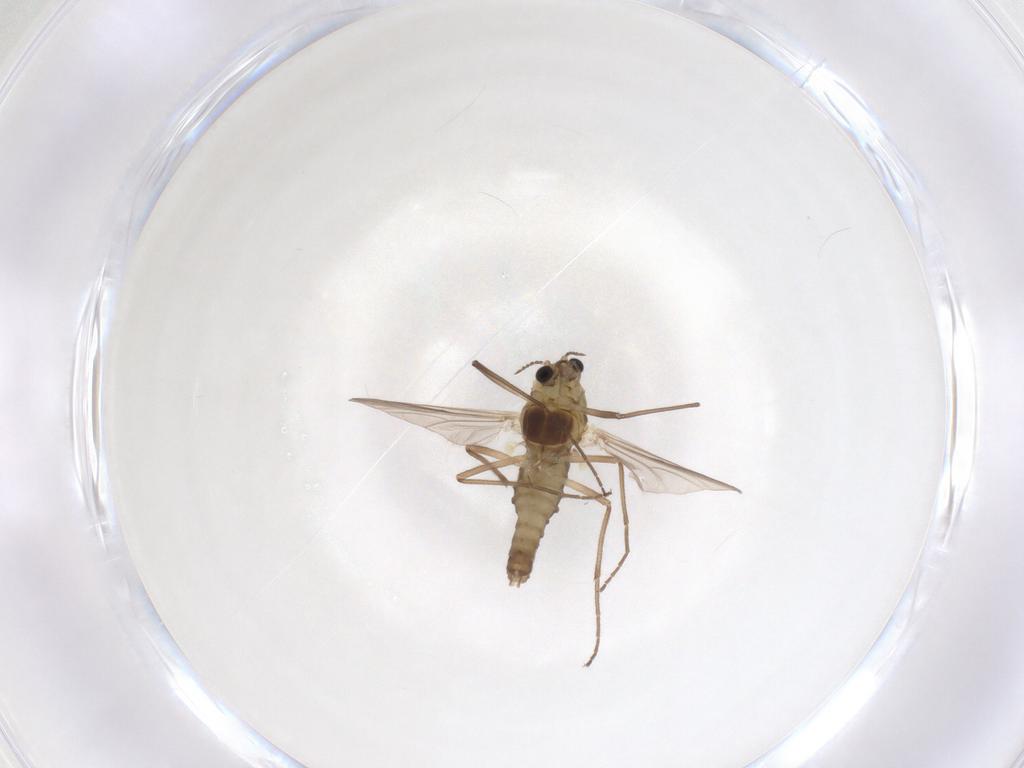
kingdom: Animalia
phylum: Arthropoda
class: Insecta
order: Diptera
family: Chironomidae
